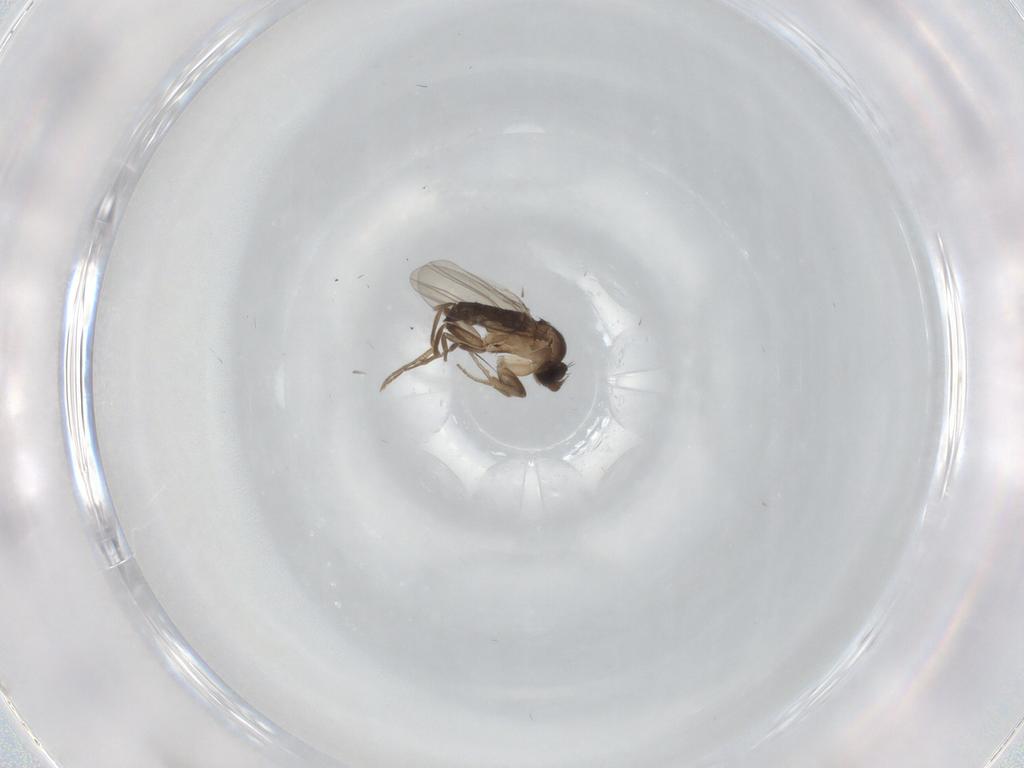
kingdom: Animalia
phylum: Arthropoda
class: Insecta
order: Diptera
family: Phoridae
